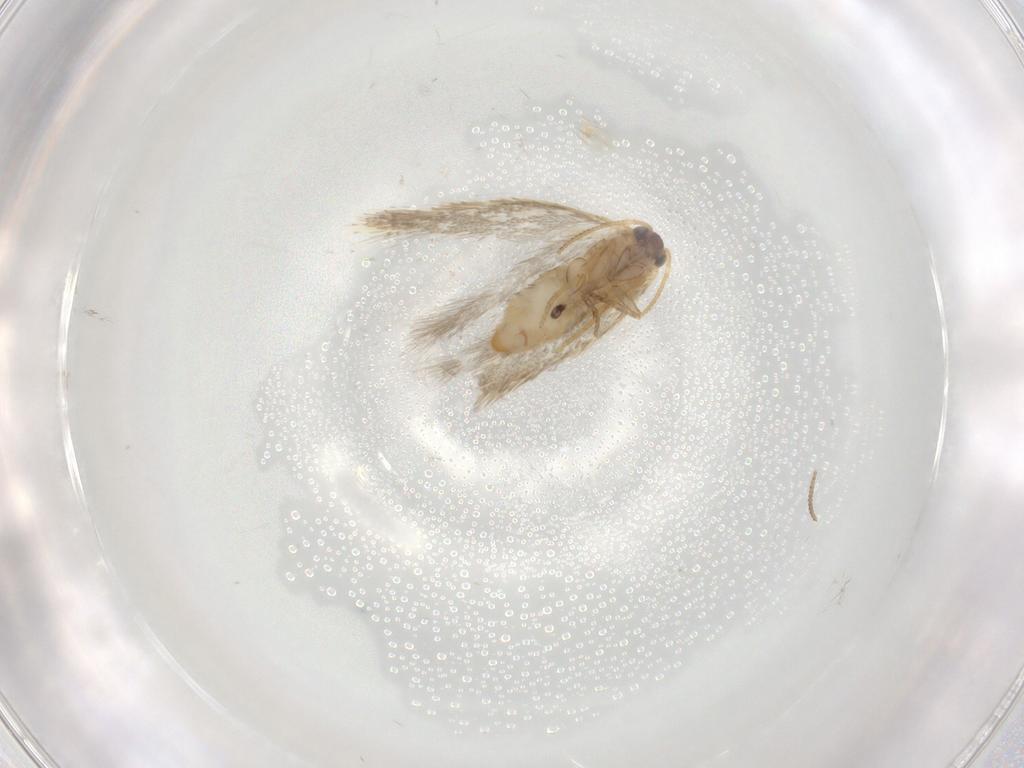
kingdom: Animalia
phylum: Arthropoda
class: Insecta
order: Lepidoptera
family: Nepticulidae
